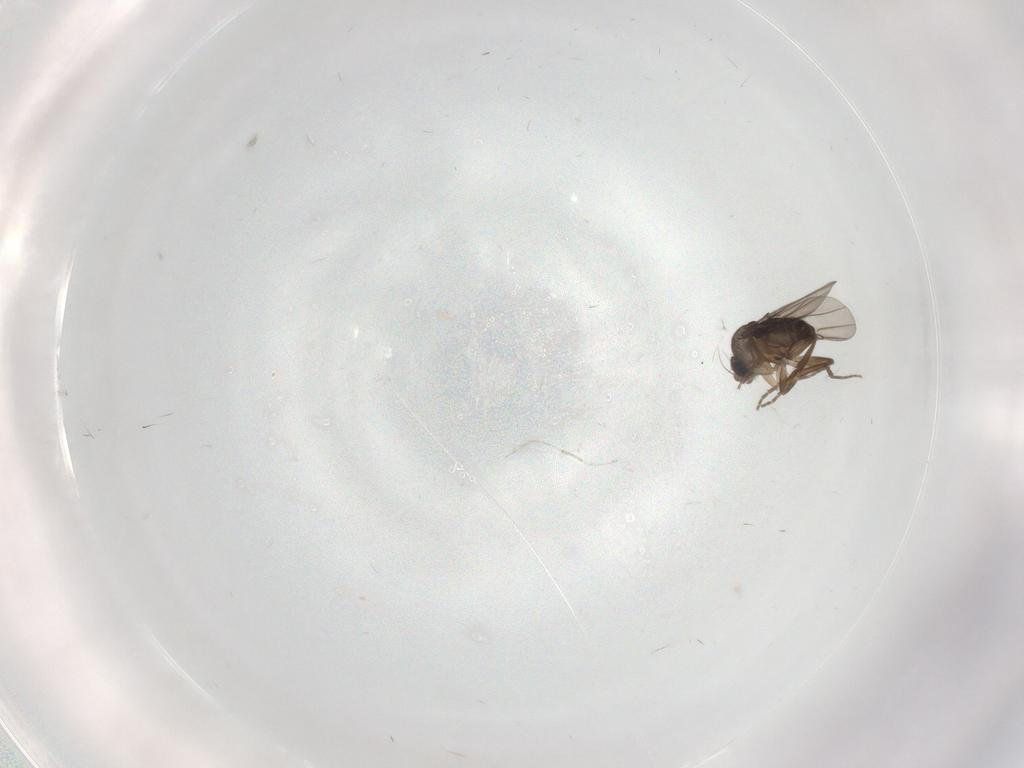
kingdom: Animalia
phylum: Arthropoda
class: Insecta
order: Diptera
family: Phoridae
